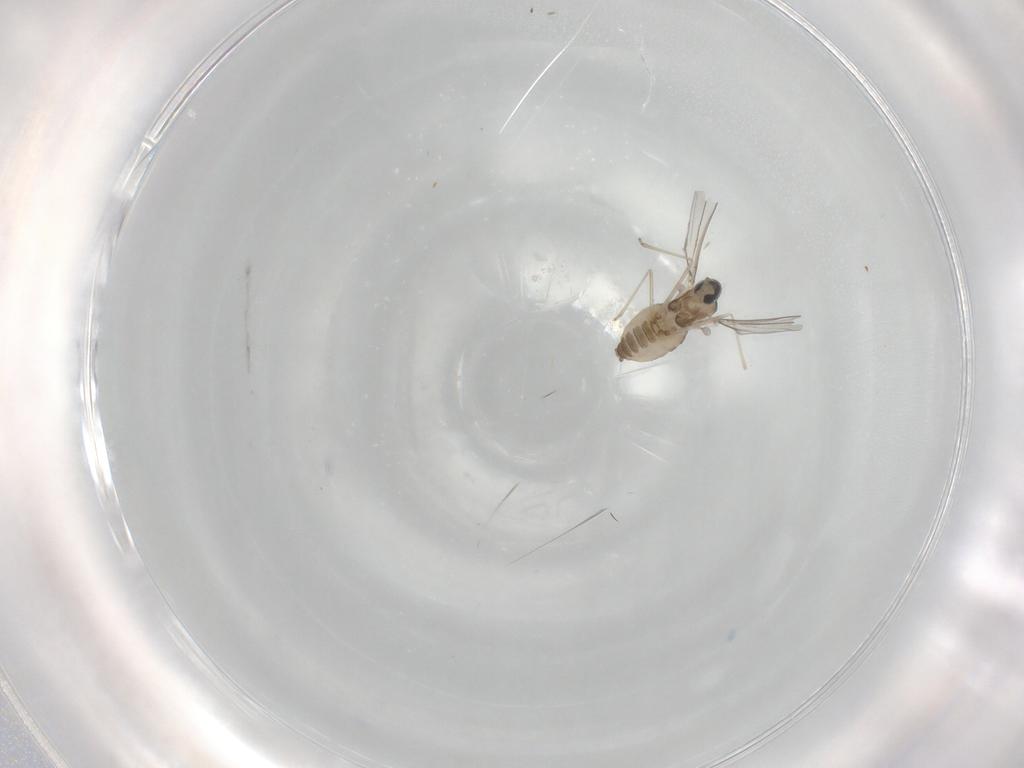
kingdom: Animalia
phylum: Arthropoda
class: Insecta
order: Diptera
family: Cecidomyiidae
